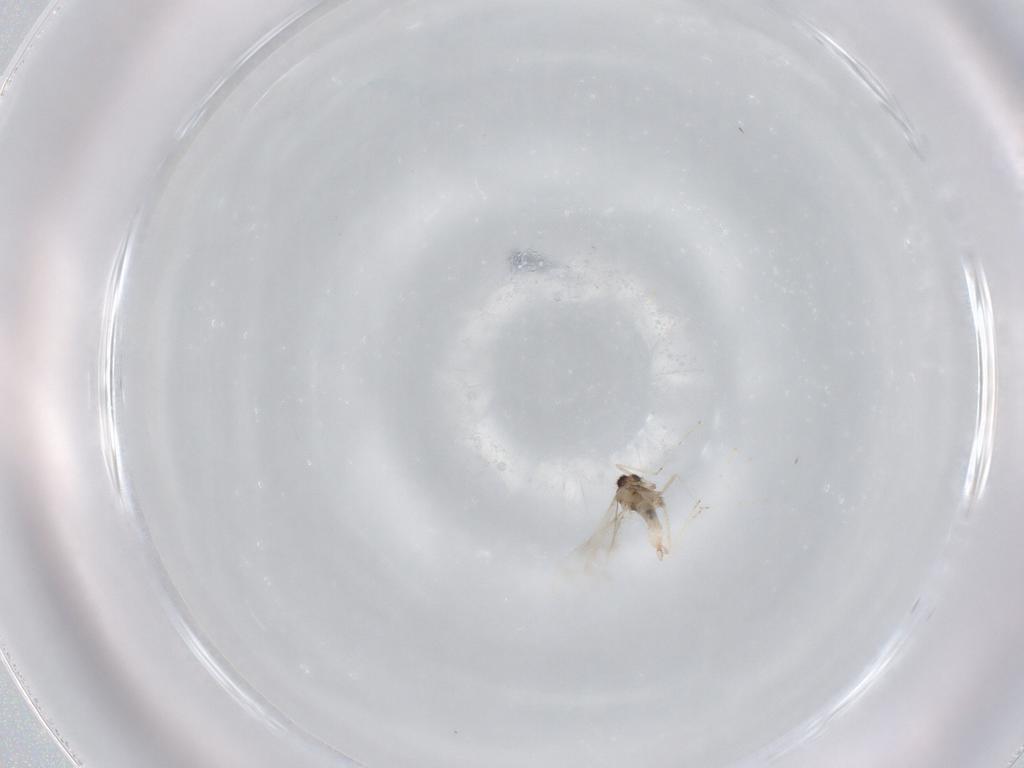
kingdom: Animalia
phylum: Arthropoda
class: Insecta
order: Diptera
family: Cecidomyiidae
